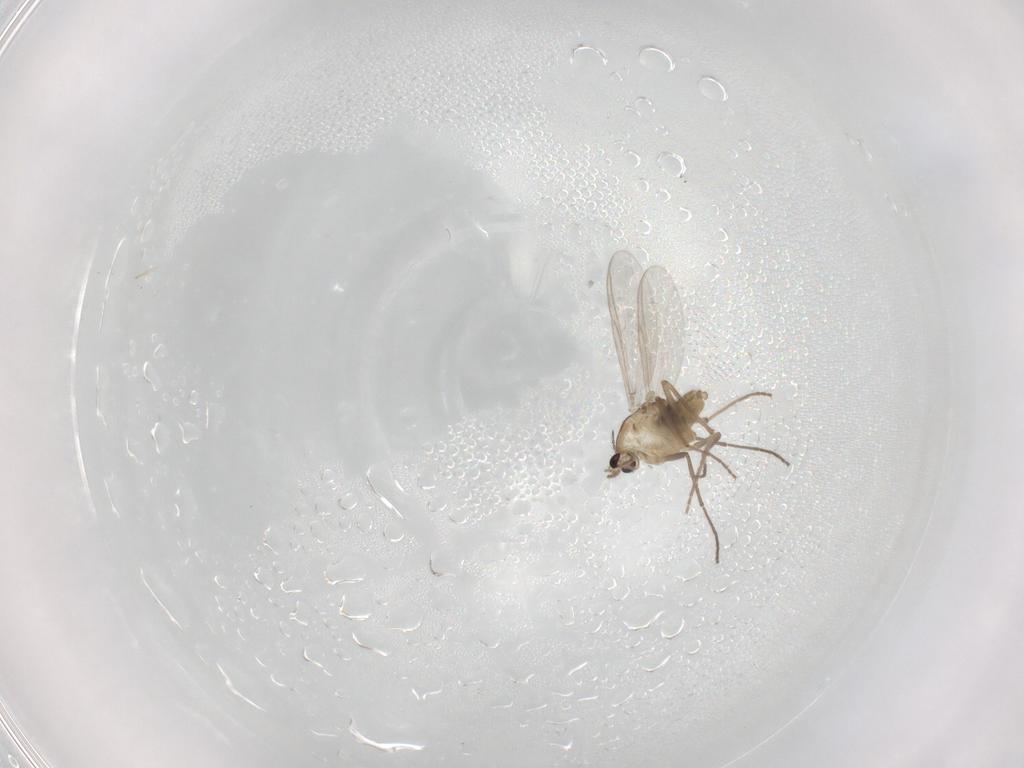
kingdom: Animalia
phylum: Arthropoda
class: Insecta
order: Diptera
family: Chironomidae
